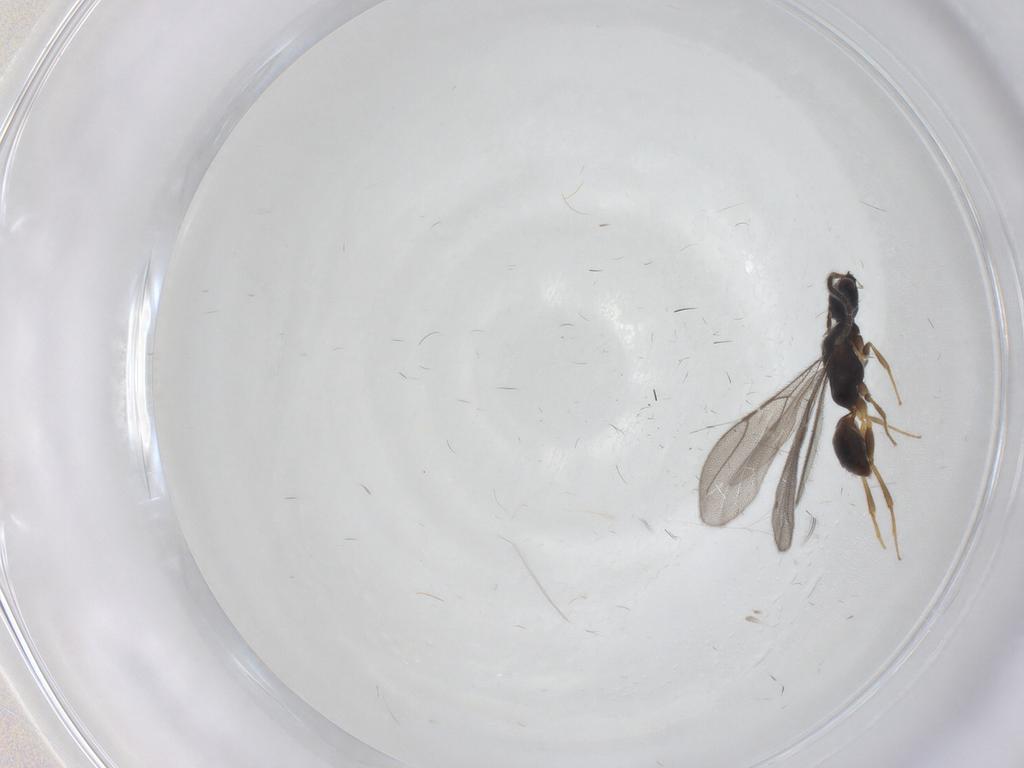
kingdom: Animalia
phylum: Arthropoda
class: Insecta
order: Hymenoptera
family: Bethylidae
